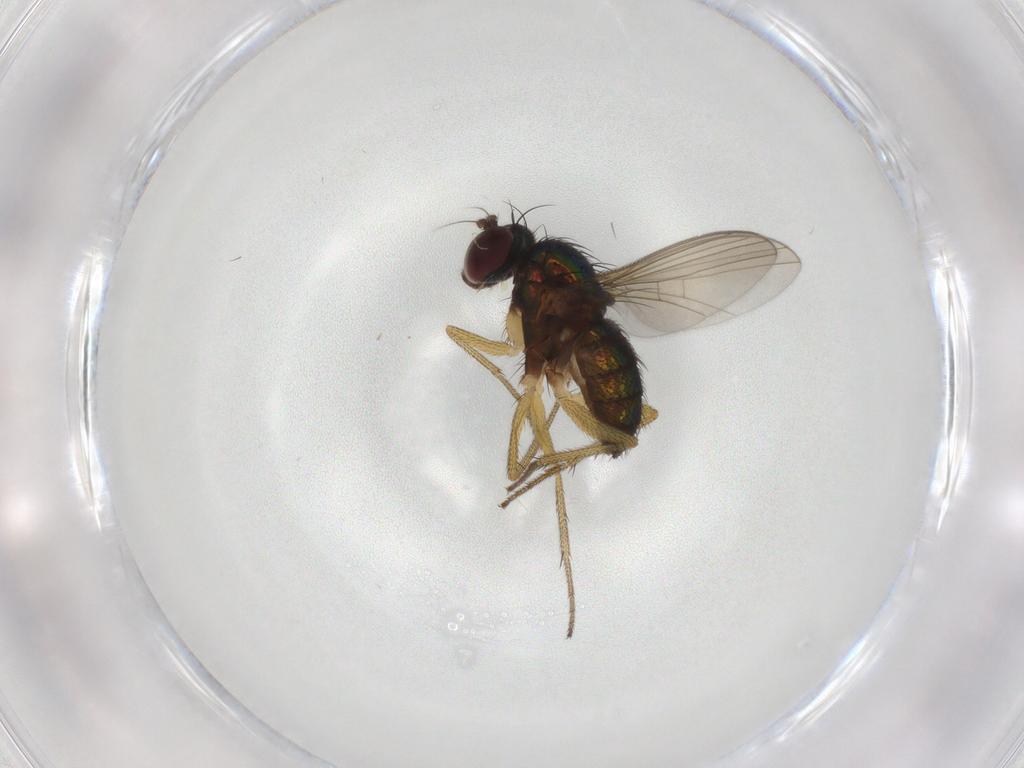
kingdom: Animalia
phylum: Arthropoda
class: Insecta
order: Diptera
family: Dolichopodidae
